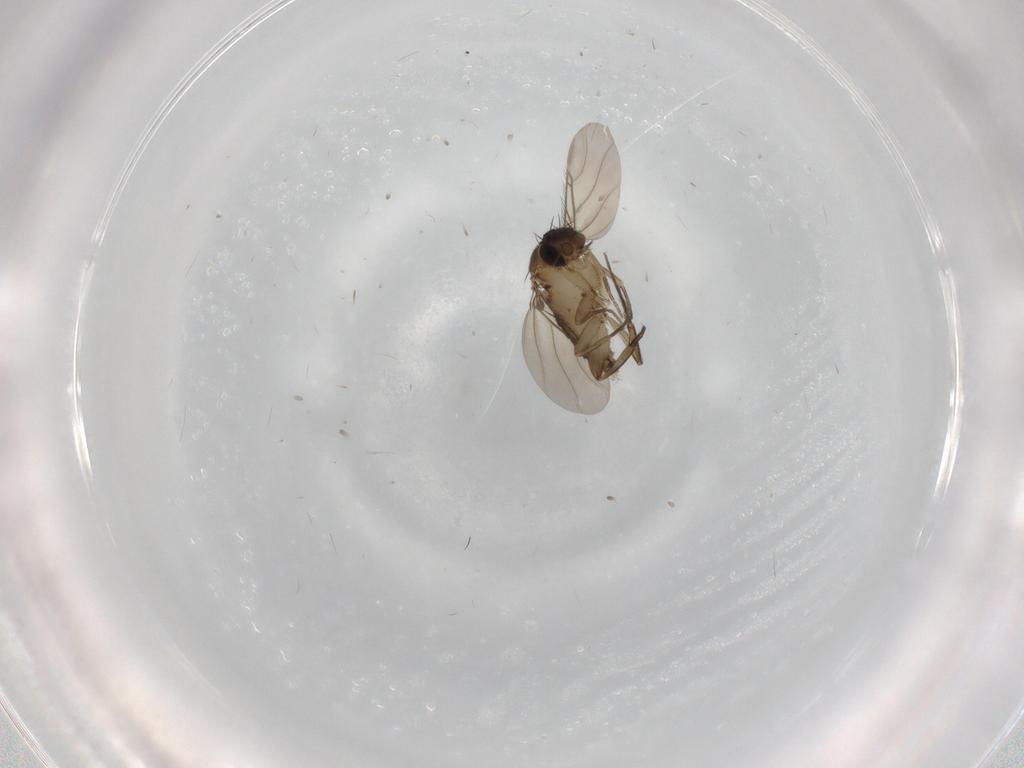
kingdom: Animalia
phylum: Arthropoda
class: Insecta
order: Diptera
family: Phoridae
